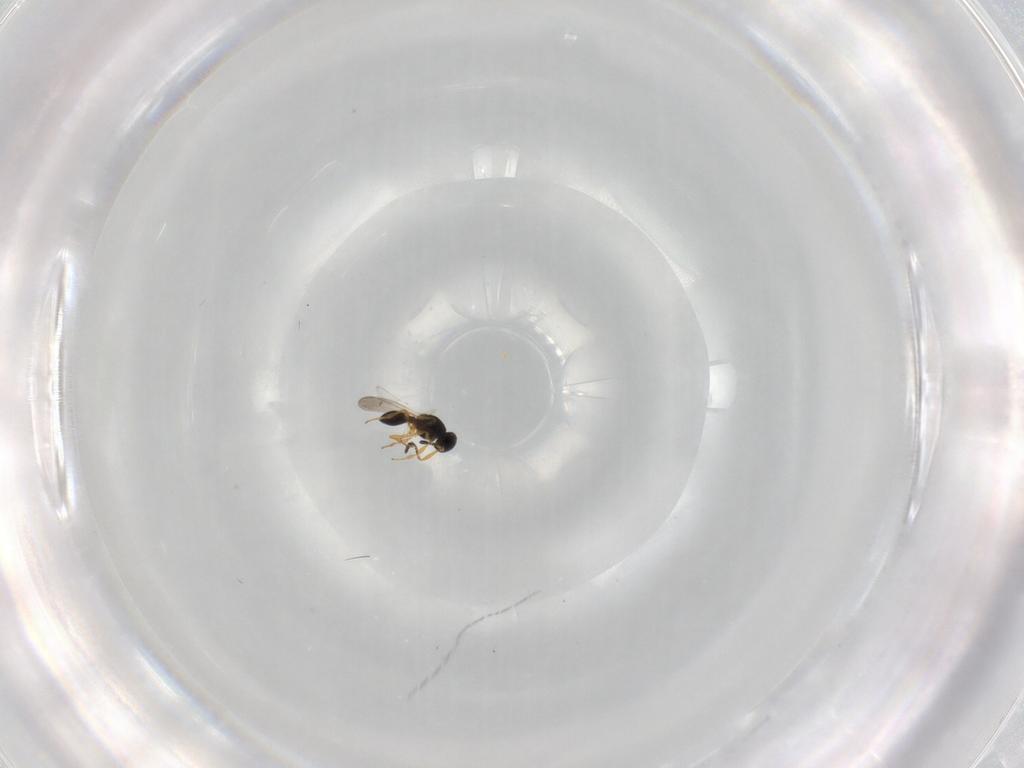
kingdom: Animalia
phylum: Arthropoda
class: Insecta
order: Hymenoptera
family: Platygastridae
